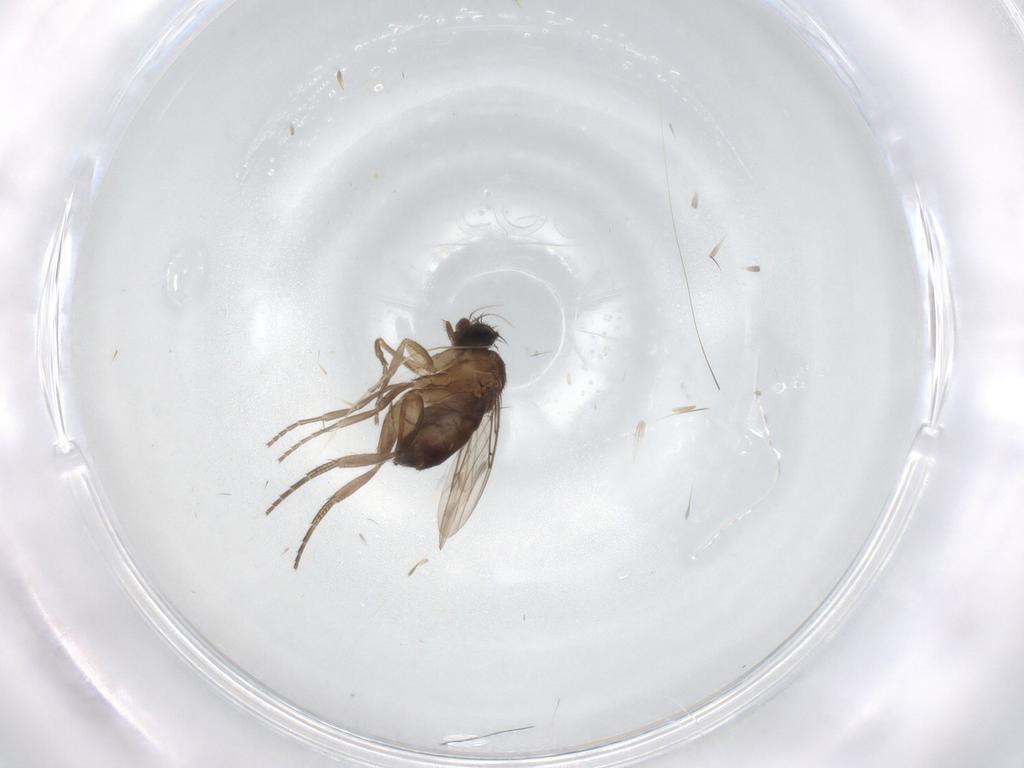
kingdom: Animalia
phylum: Arthropoda
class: Insecta
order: Diptera
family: Phoridae
